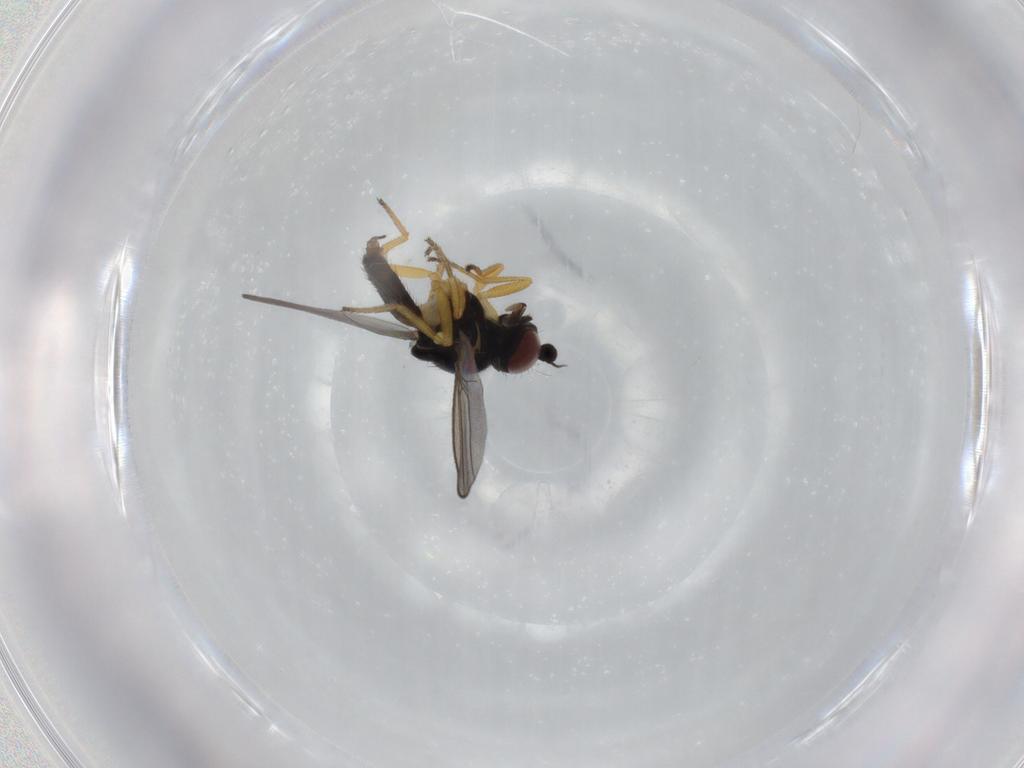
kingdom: Animalia
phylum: Arthropoda
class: Insecta
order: Diptera
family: Chloropidae
